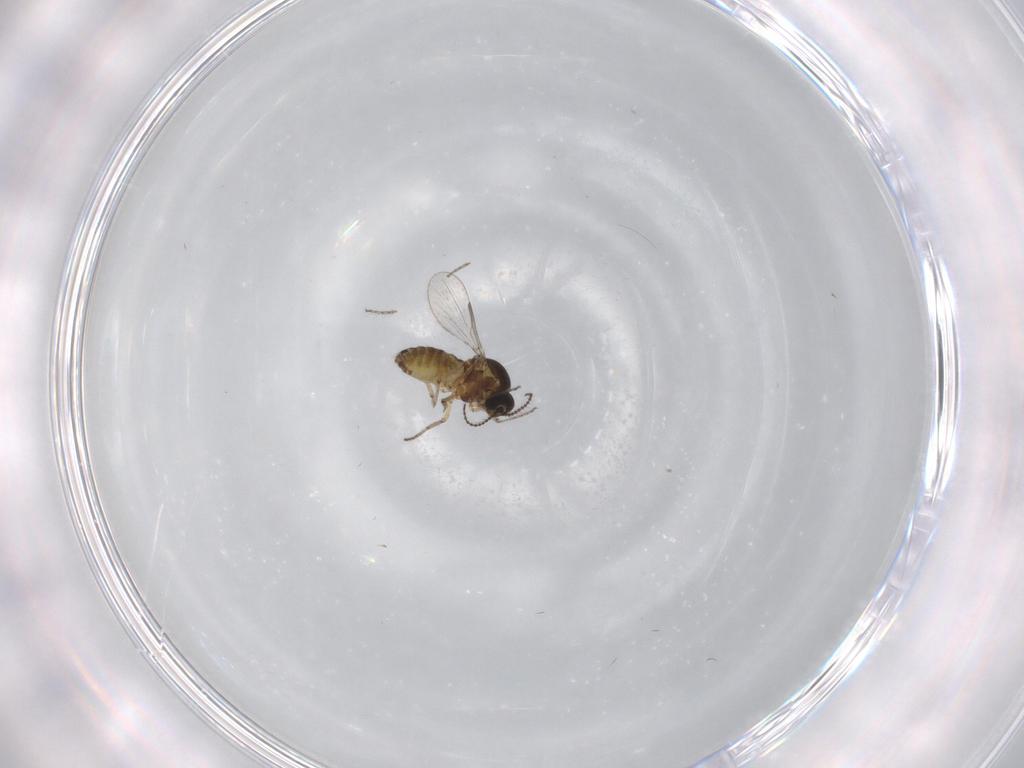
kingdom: Animalia
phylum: Arthropoda
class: Insecta
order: Diptera
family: Ceratopogonidae
